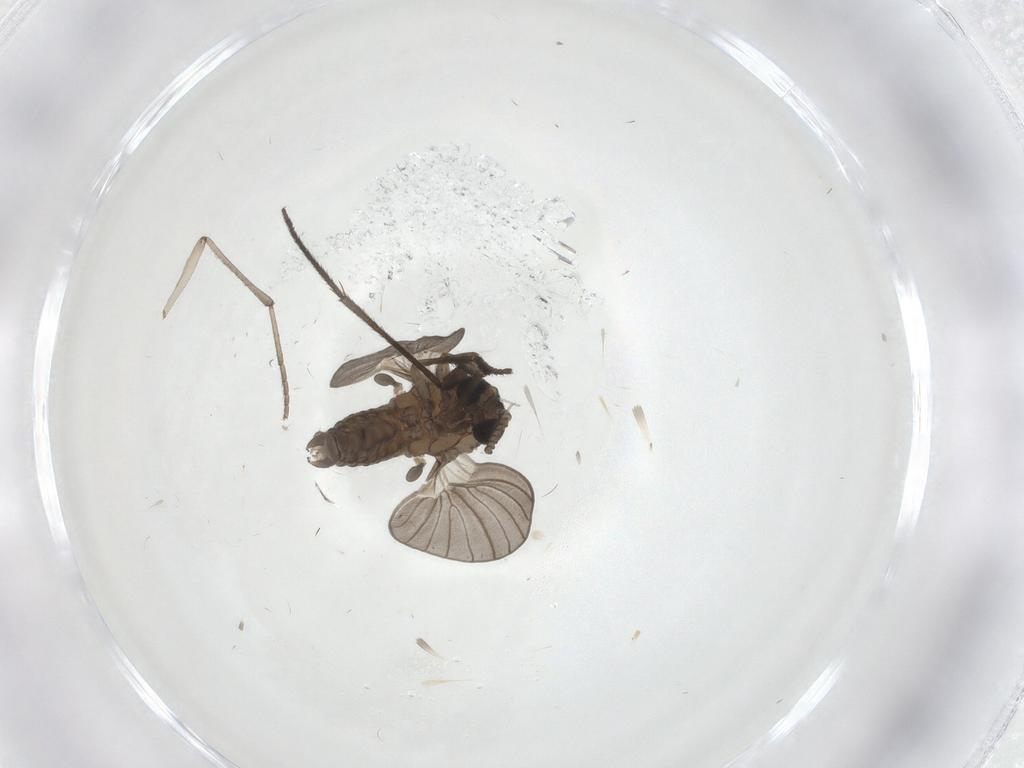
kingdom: Animalia
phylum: Arthropoda
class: Insecta
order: Diptera
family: Psychodidae
